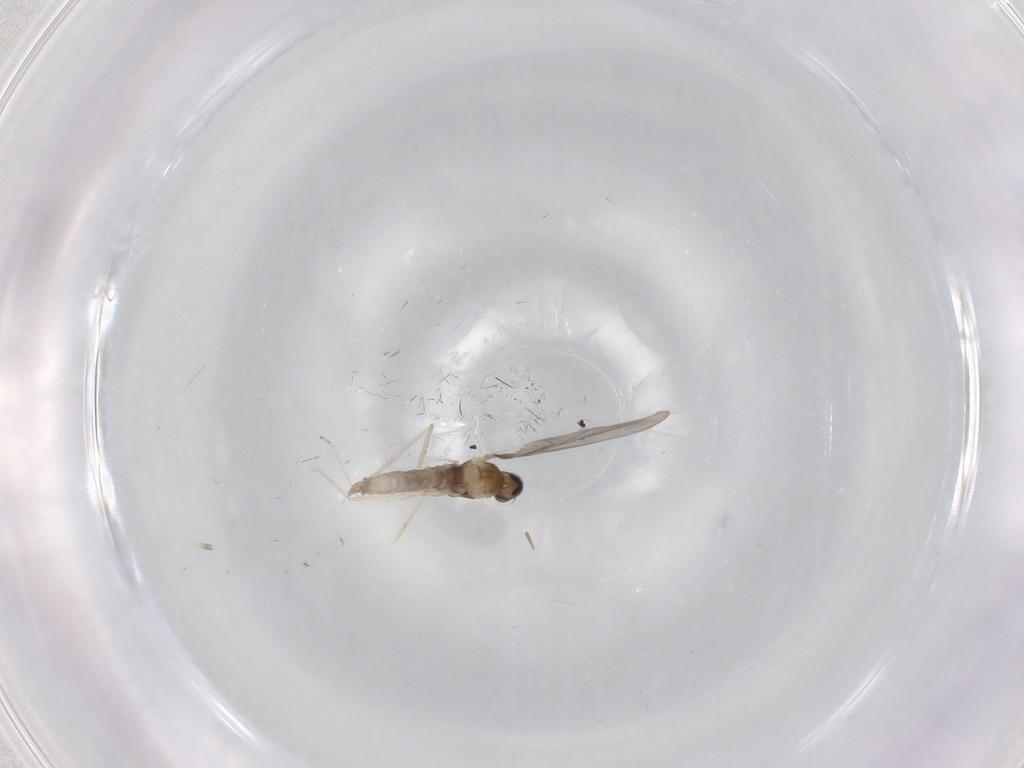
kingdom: Animalia
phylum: Arthropoda
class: Insecta
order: Diptera
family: Cecidomyiidae
